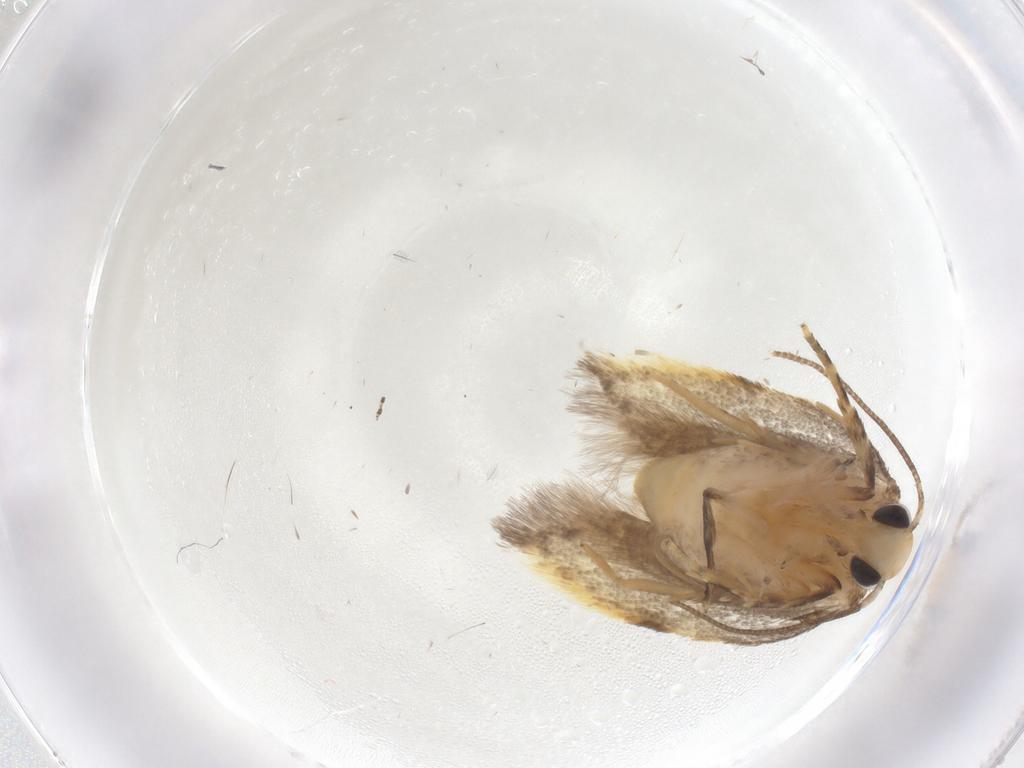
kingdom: Animalia
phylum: Arthropoda
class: Insecta
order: Lepidoptera
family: Autostichidae
